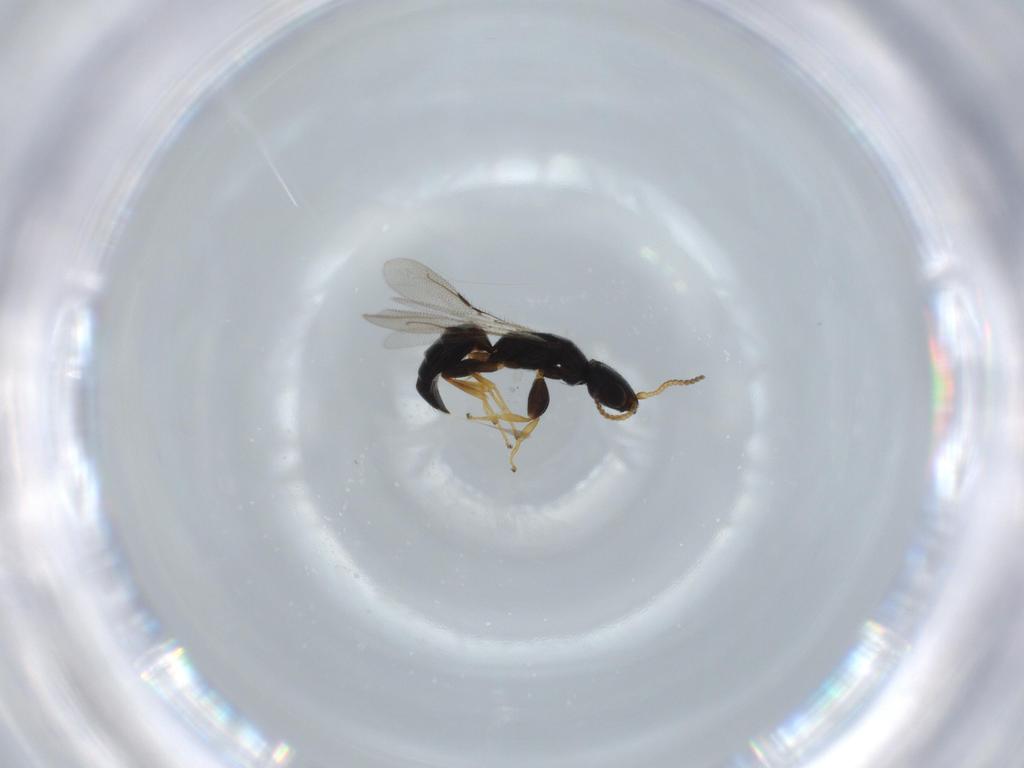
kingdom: Animalia
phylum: Arthropoda
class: Insecta
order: Hymenoptera
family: Bethylidae
